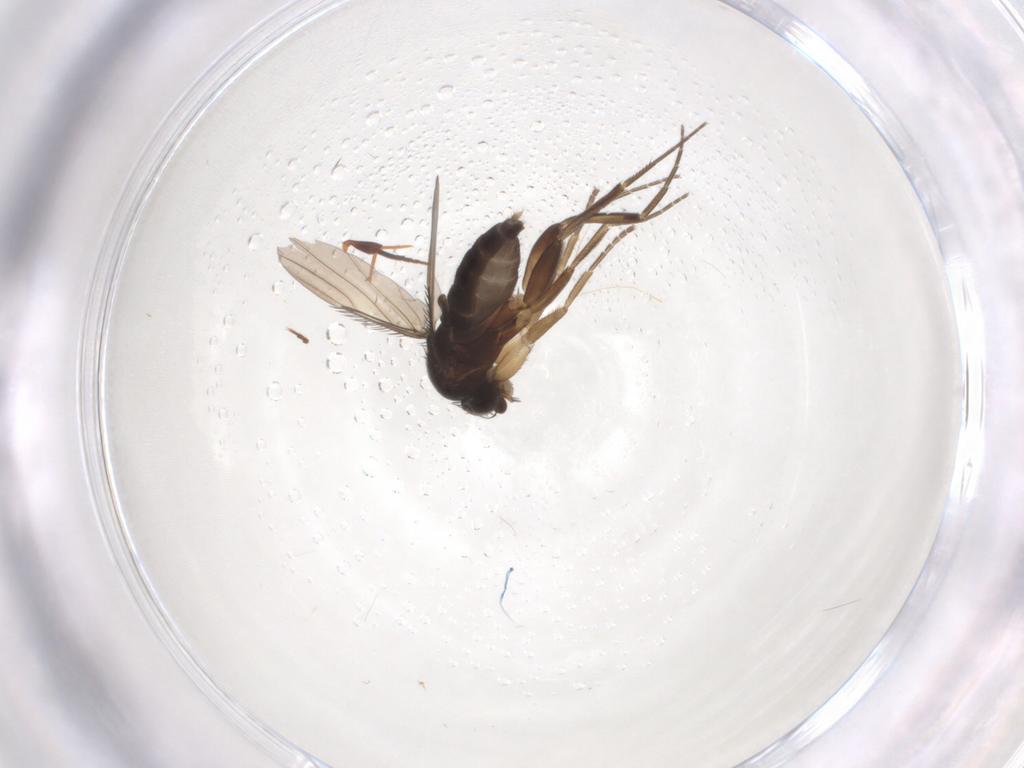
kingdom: Animalia
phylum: Arthropoda
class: Insecta
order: Diptera
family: Phoridae
